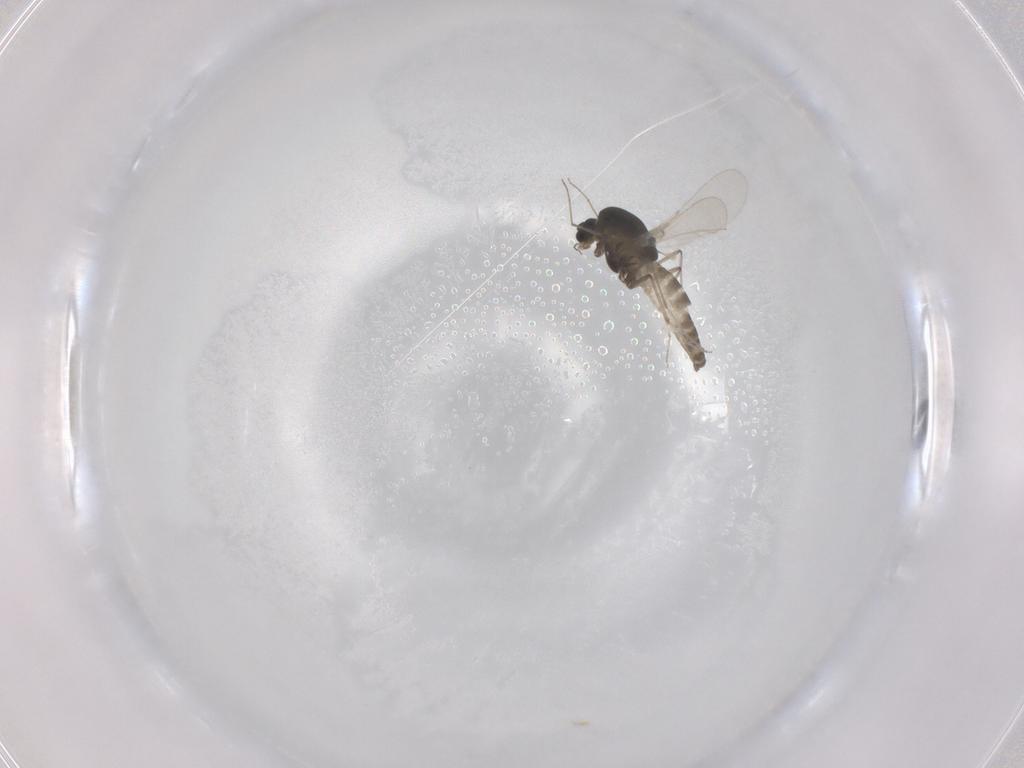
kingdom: Animalia
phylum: Arthropoda
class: Insecta
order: Diptera
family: Chironomidae
